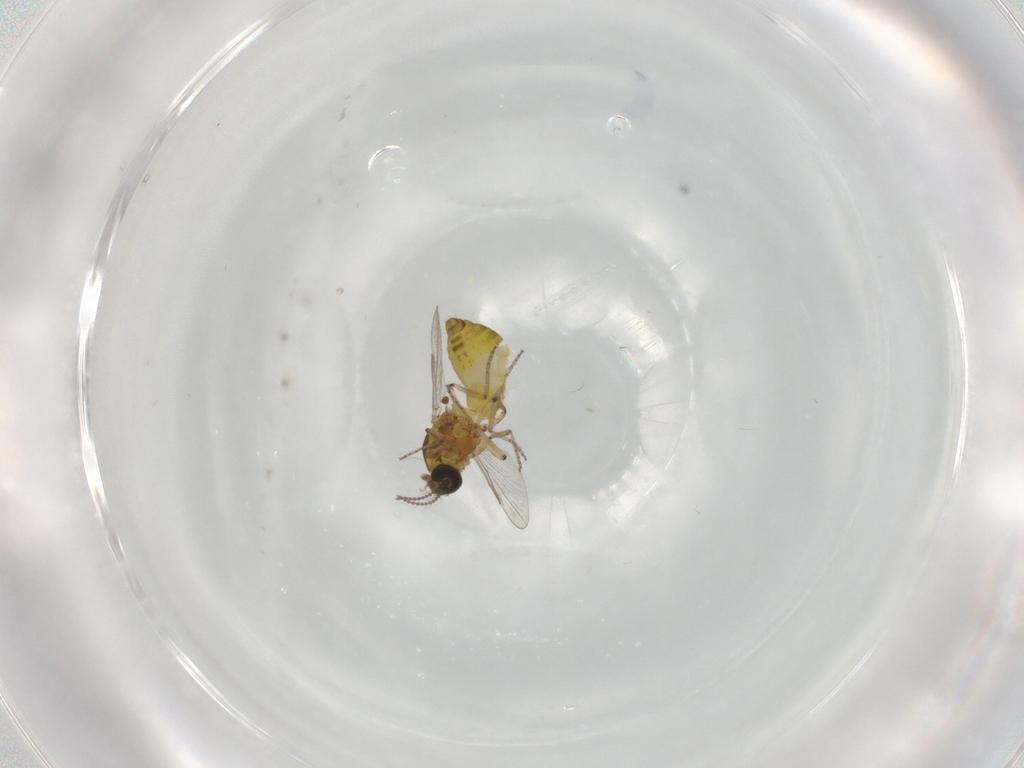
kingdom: Animalia
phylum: Arthropoda
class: Insecta
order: Diptera
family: Ceratopogonidae
